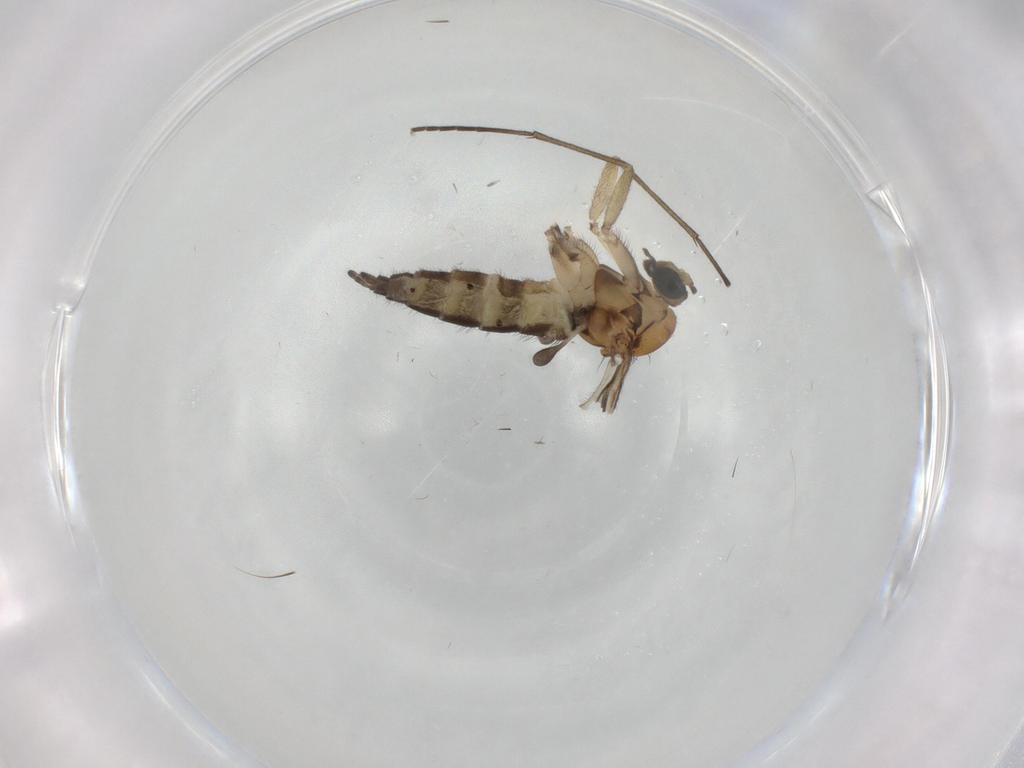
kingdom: Animalia
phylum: Arthropoda
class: Insecta
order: Diptera
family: Sciaridae
